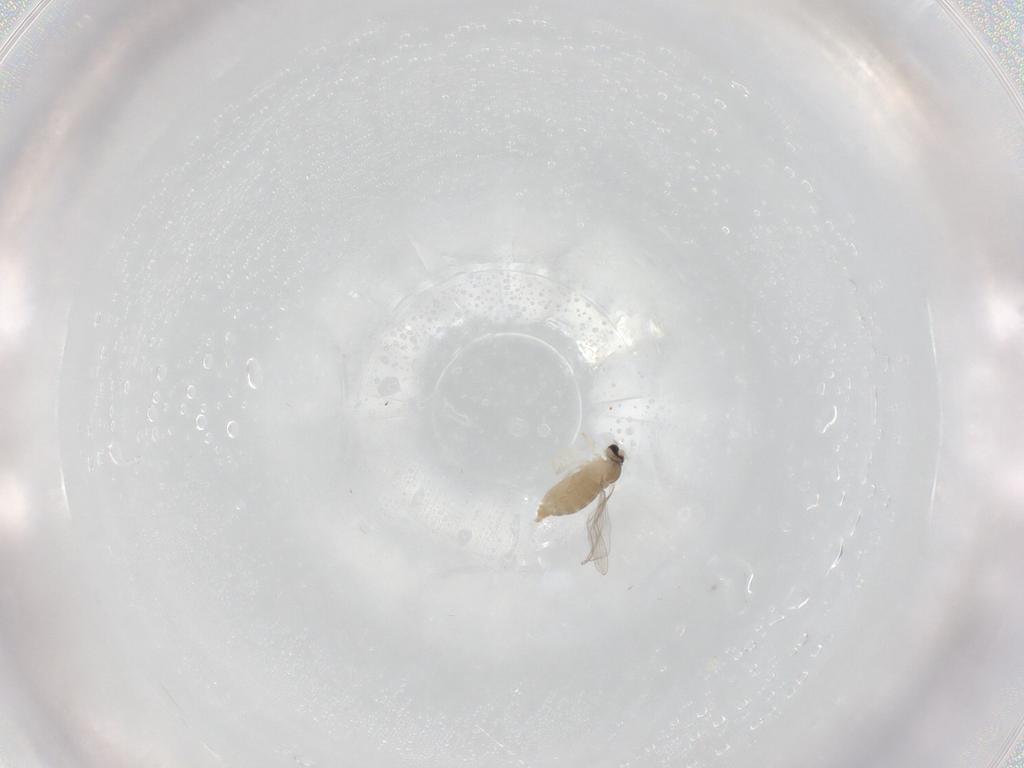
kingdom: Animalia
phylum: Arthropoda
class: Insecta
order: Diptera
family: Cecidomyiidae
